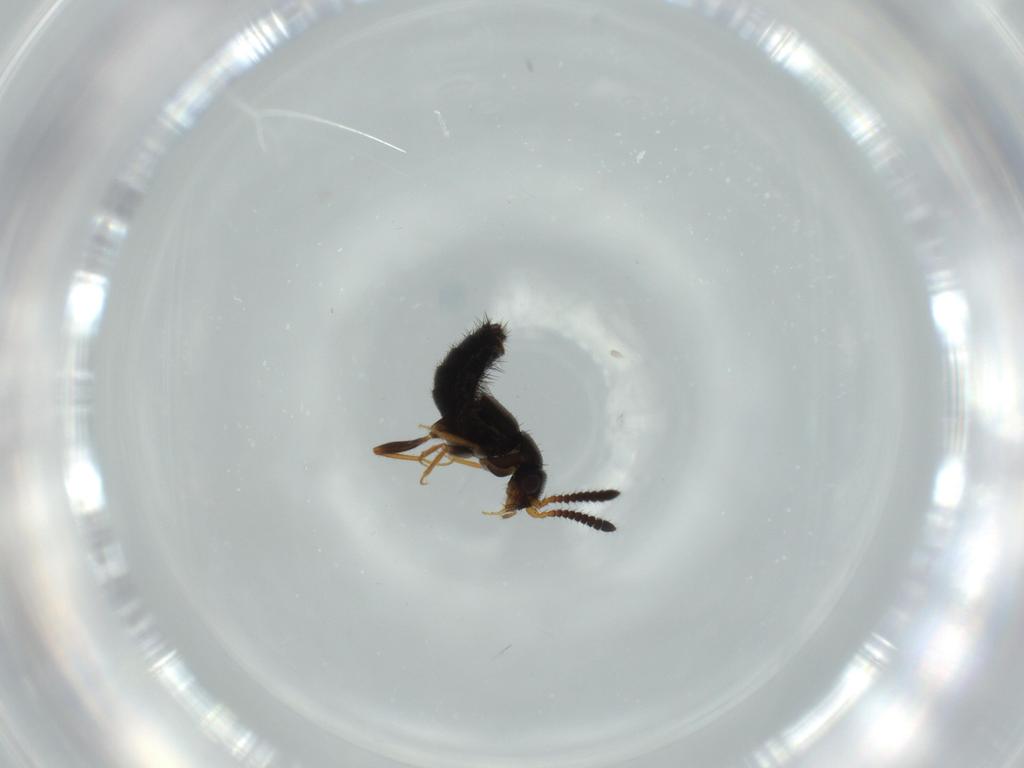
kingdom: Animalia
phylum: Arthropoda
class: Insecta
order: Coleoptera
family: Staphylinidae
